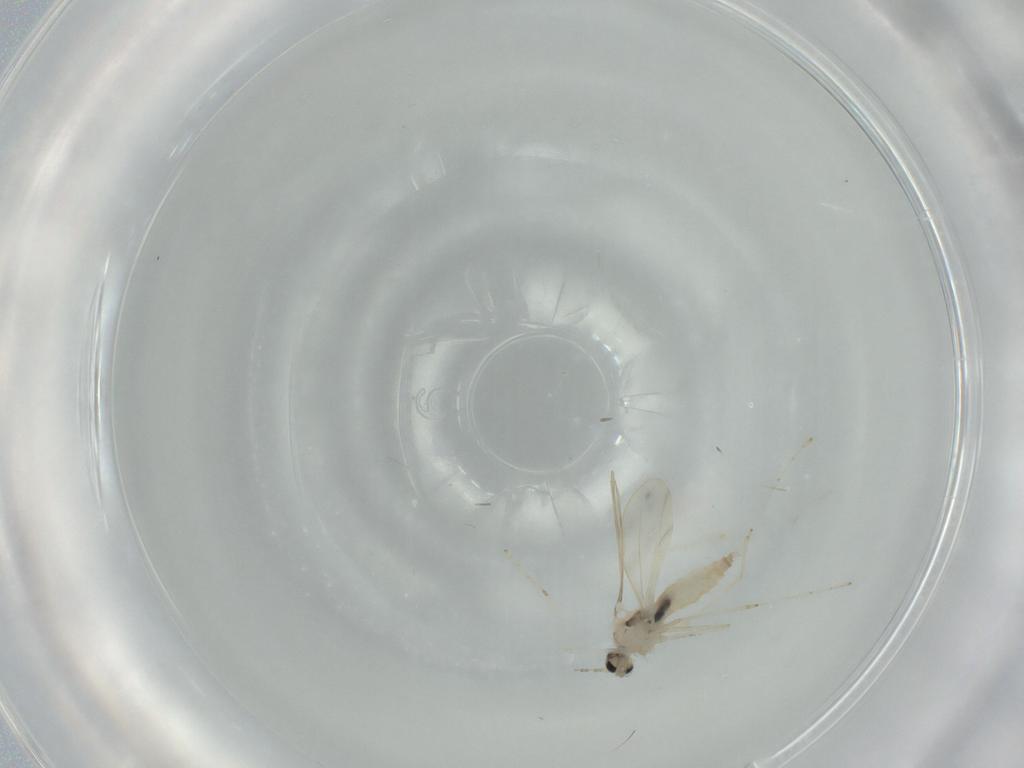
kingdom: Animalia
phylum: Arthropoda
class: Insecta
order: Diptera
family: Cecidomyiidae
